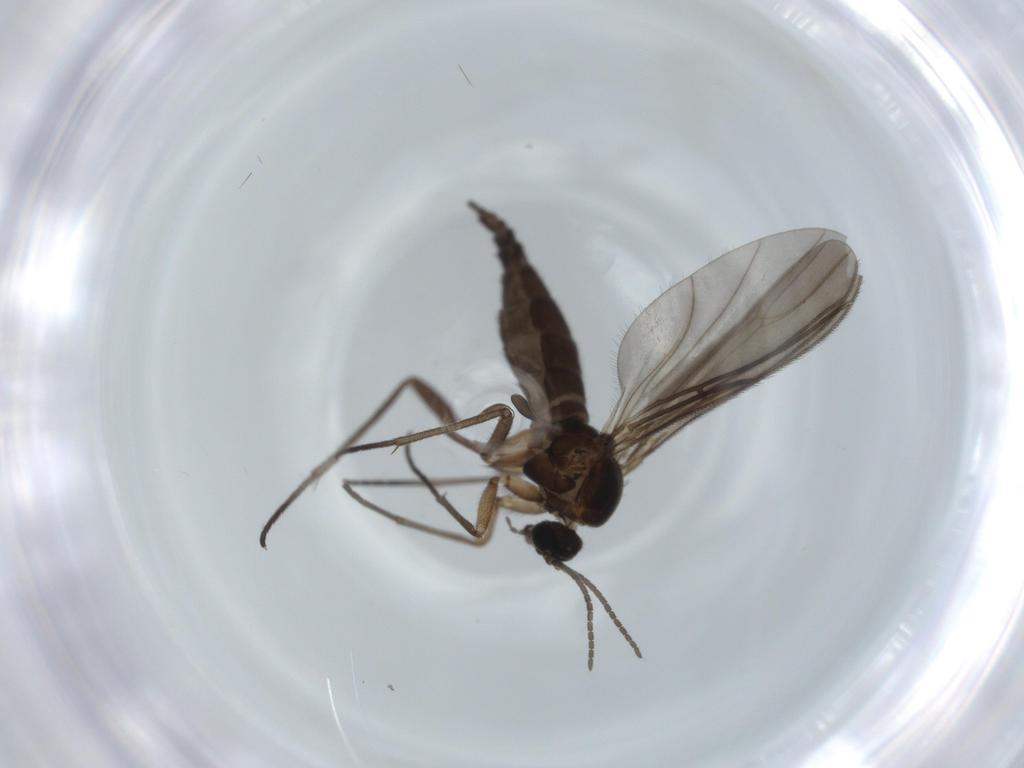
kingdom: Animalia
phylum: Arthropoda
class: Insecta
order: Diptera
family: Sciaridae
